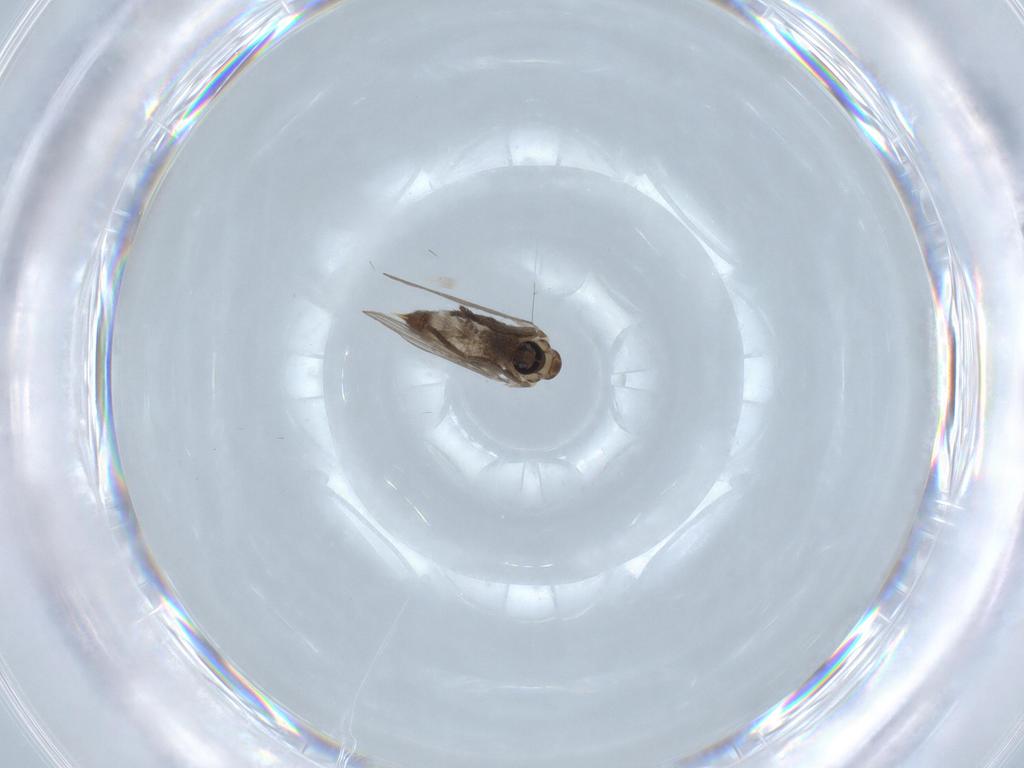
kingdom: Animalia
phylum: Arthropoda
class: Insecta
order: Diptera
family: Psychodidae
